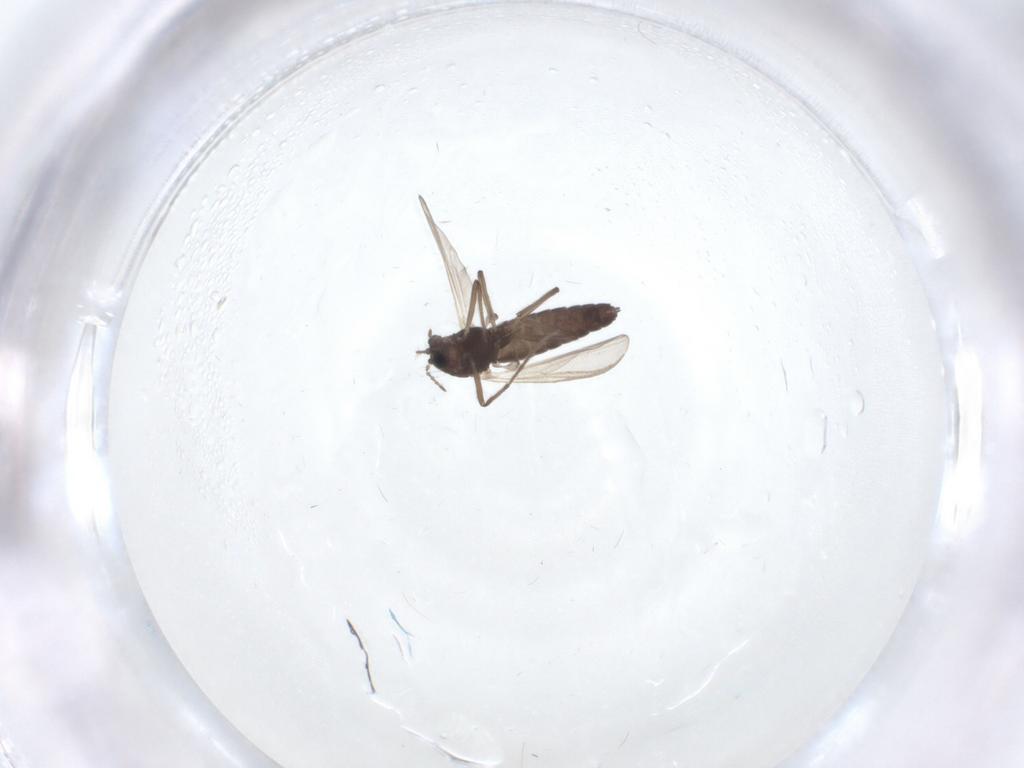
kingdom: Animalia
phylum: Arthropoda
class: Insecta
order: Diptera
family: Chironomidae
